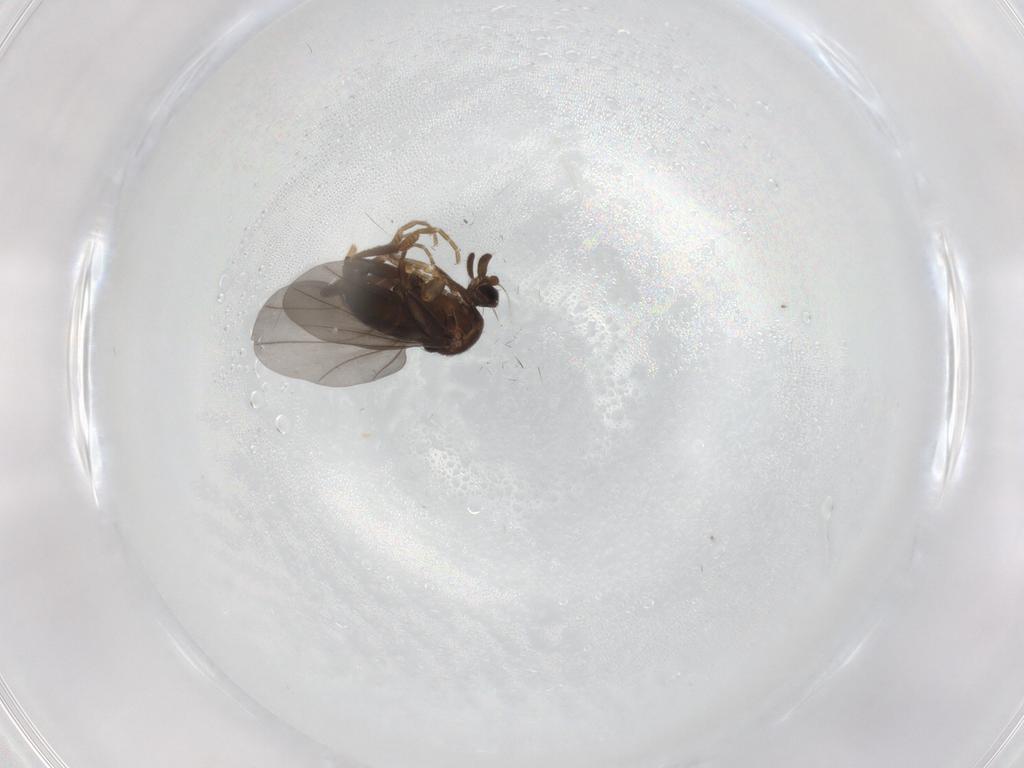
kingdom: Animalia
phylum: Arthropoda
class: Insecta
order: Diptera
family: Phoridae
